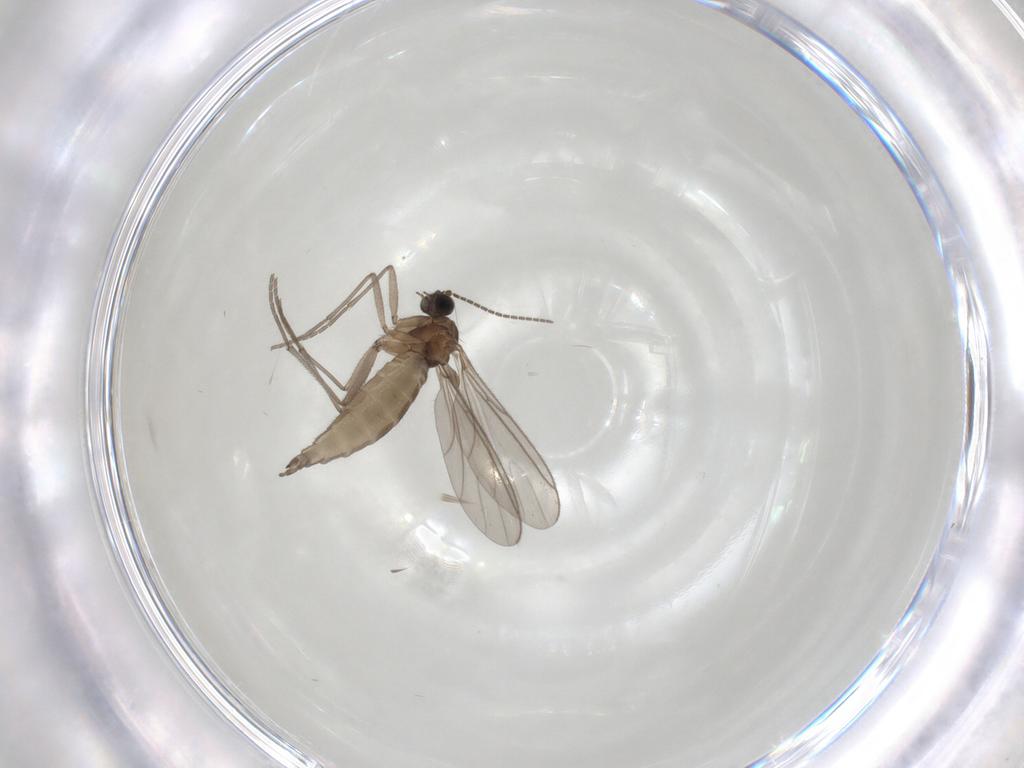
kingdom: Animalia
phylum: Arthropoda
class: Insecta
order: Diptera
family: Sciaridae
